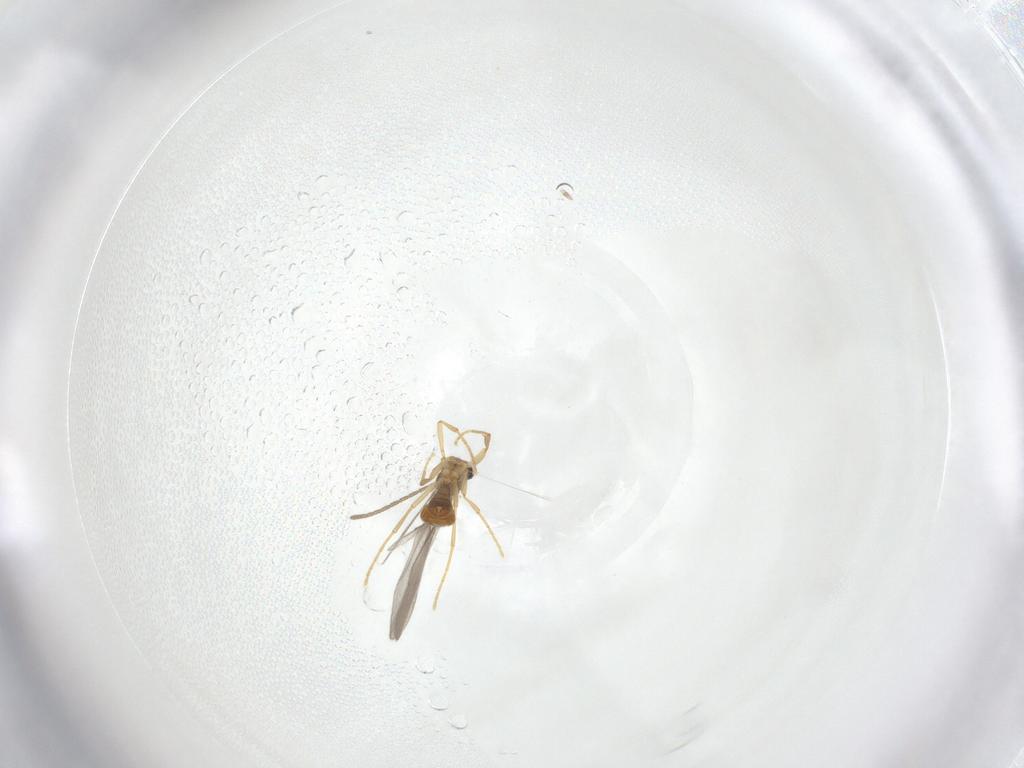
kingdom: Animalia
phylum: Arthropoda
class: Insecta
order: Hymenoptera
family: Formicidae
